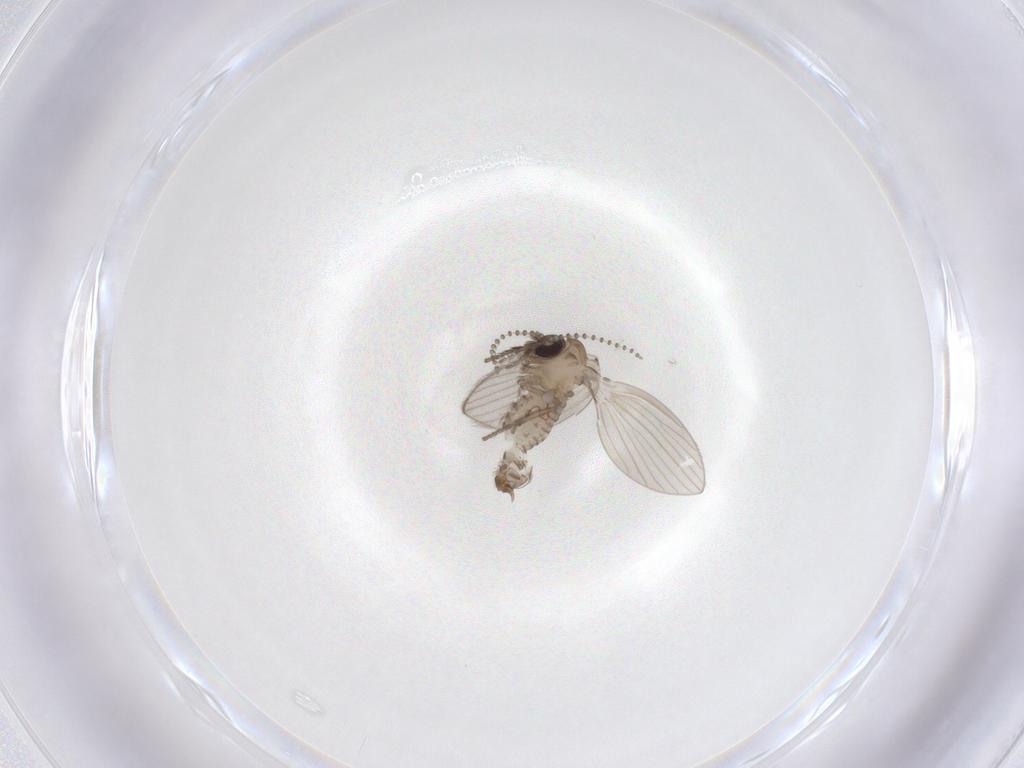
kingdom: Animalia
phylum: Arthropoda
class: Insecta
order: Diptera
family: Psychodidae
